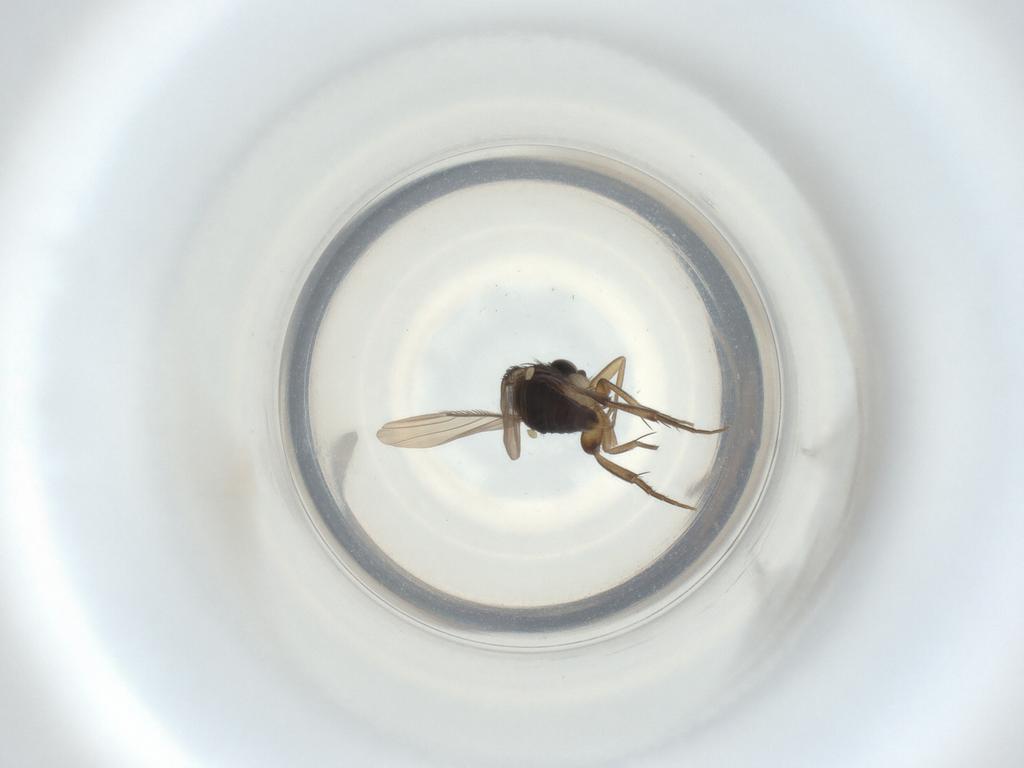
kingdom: Animalia
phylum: Arthropoda
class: Insecta
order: Diptera
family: Phoridae
